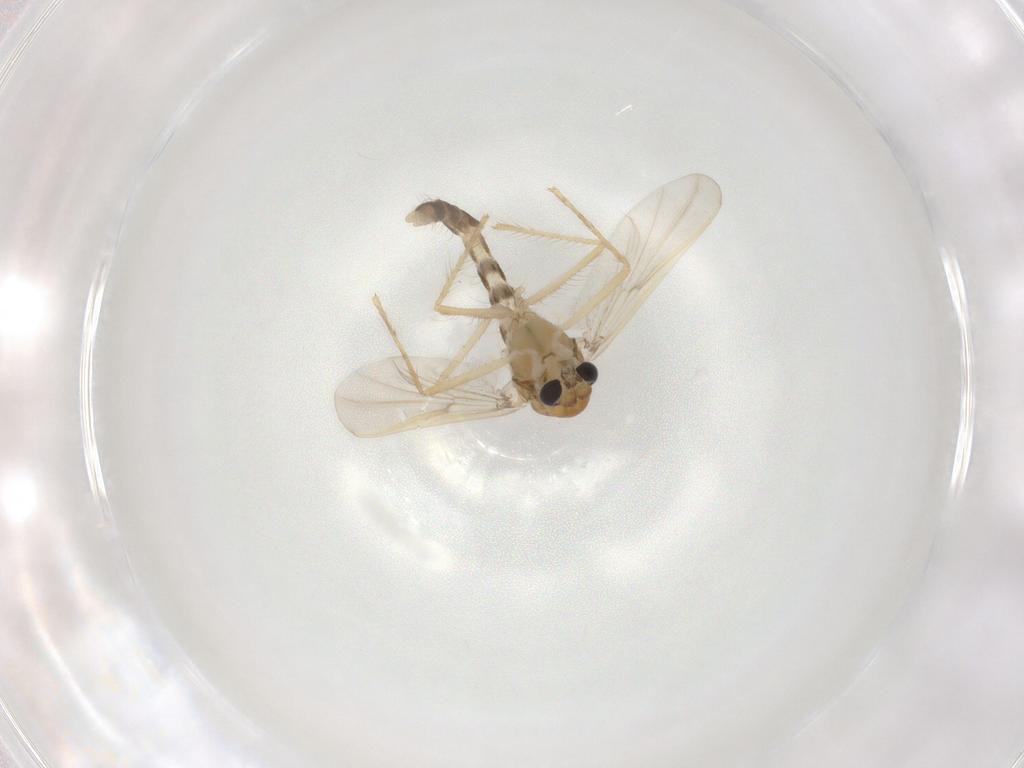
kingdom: Animalia
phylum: Arthropoda
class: Insecta
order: Diptera
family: Chironomidae
